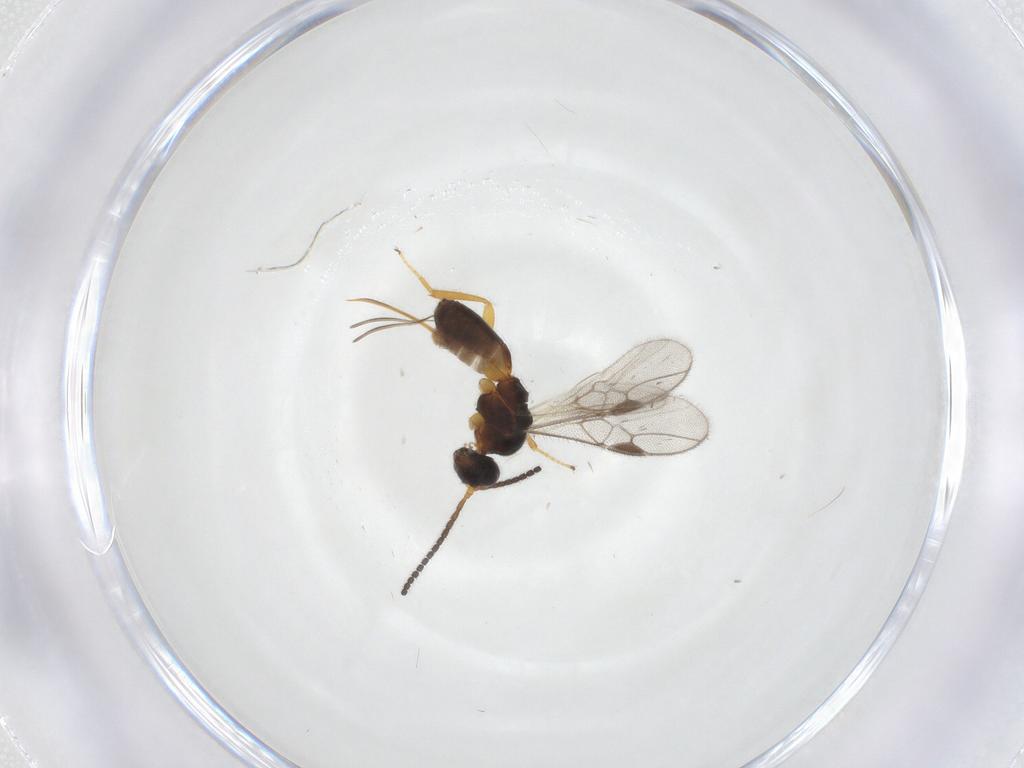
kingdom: Animalia
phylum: Arthropoda
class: Insecta
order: Hymenoptera
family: Braconidae
